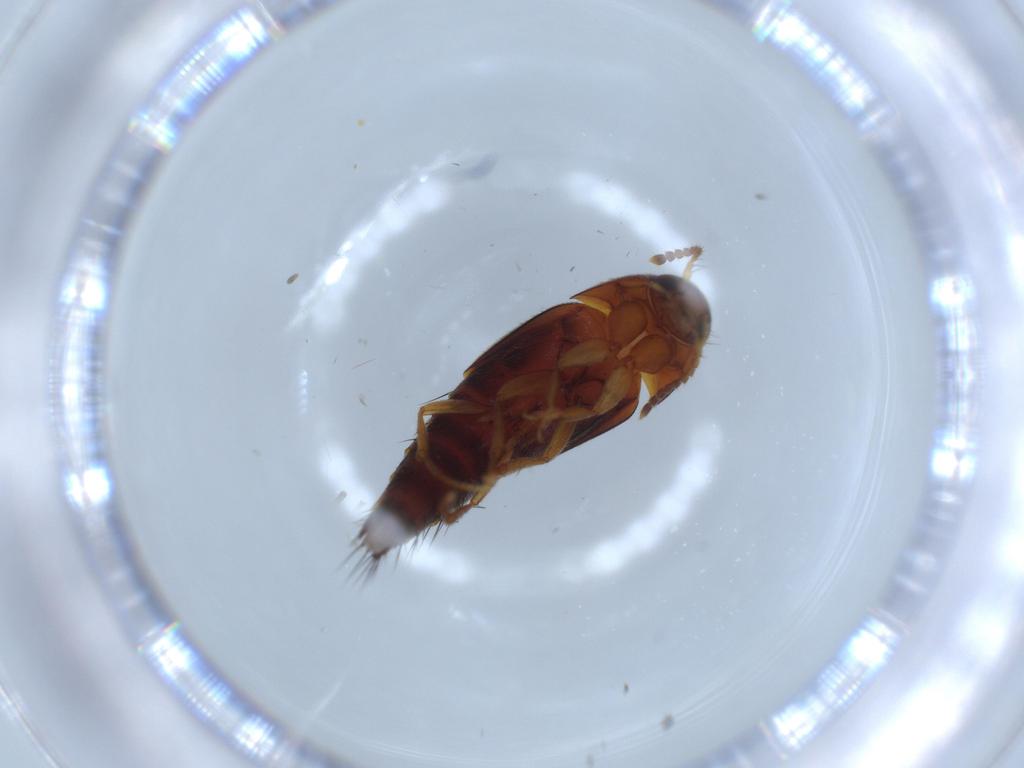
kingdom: Animalia
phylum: Arthropoda
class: Insecta
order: Coleoptera
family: Staphylinidae
